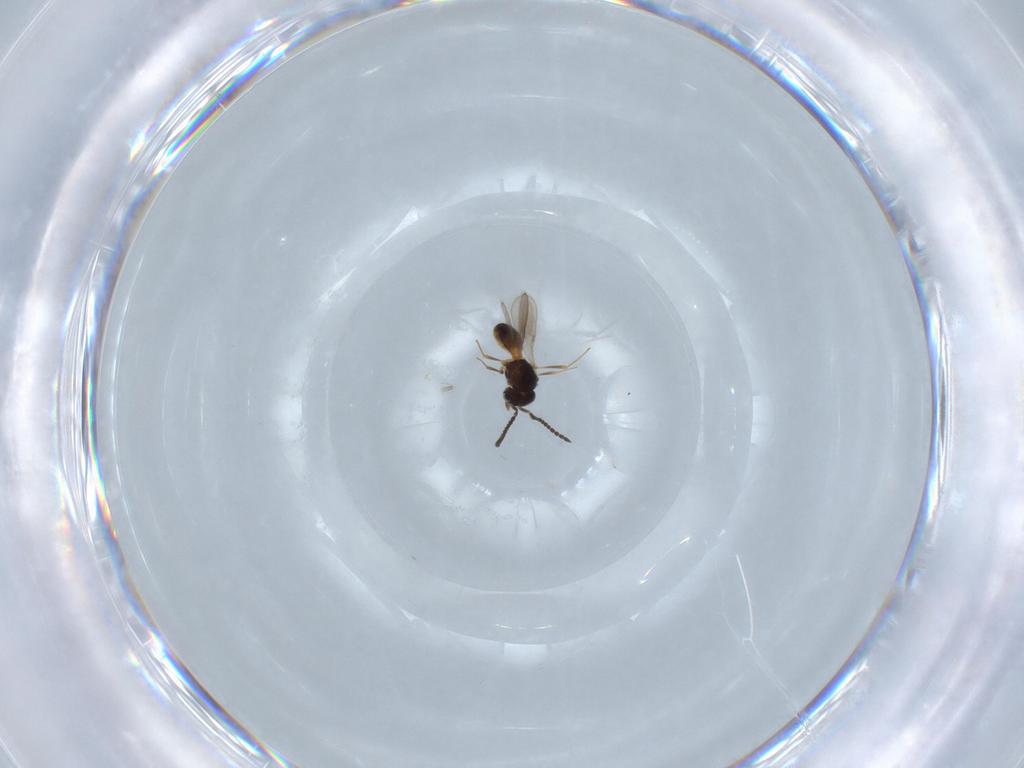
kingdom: Animalia
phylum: Arthropoda
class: Insecta
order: Hymenoptera
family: Scelionidae
